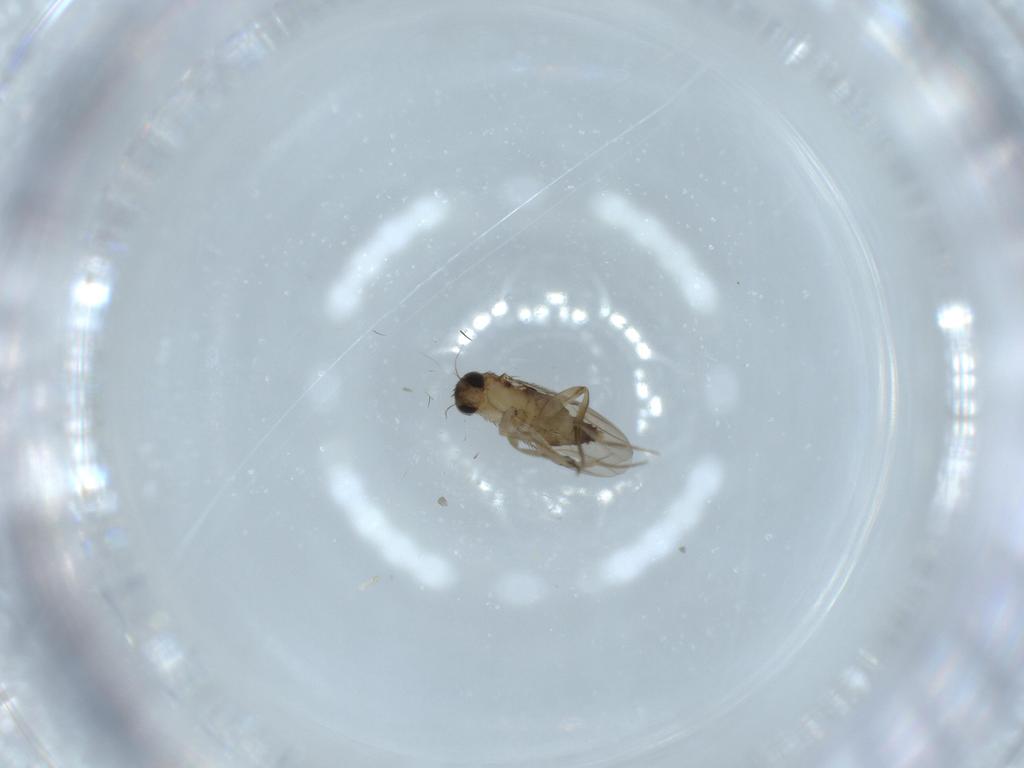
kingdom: Animalia
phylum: Arthropoda
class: Insecta
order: Diptera
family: Phoridae
